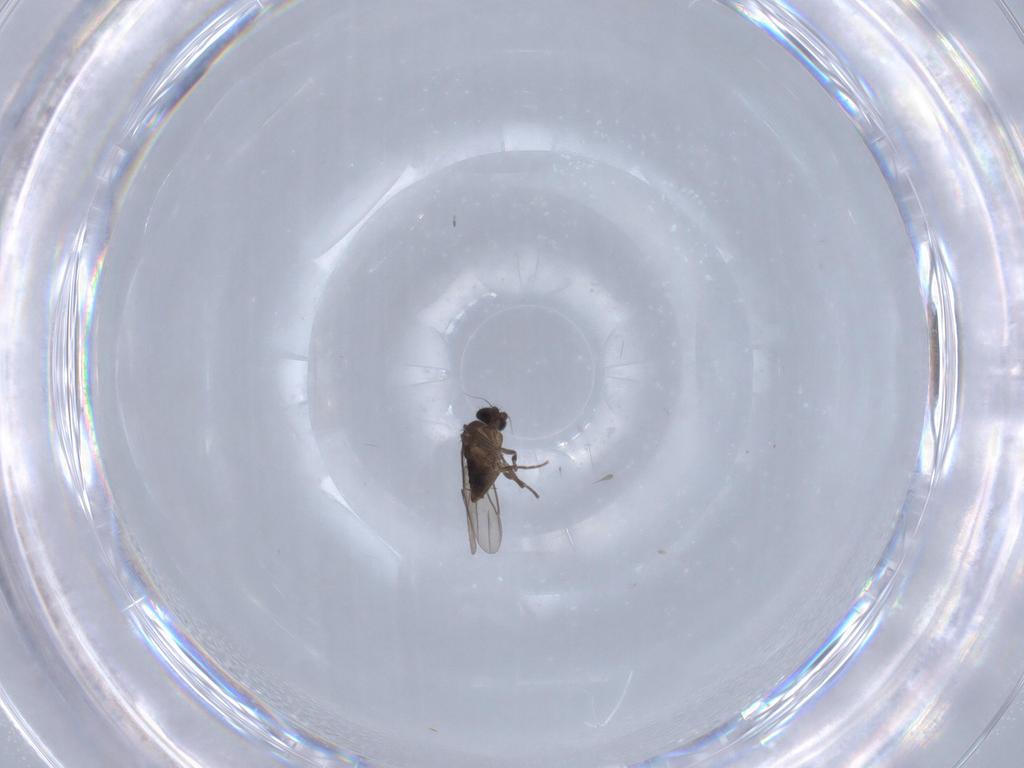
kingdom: Animalia
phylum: Arthropoda
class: Insecta
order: Diptera
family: Phoridae
